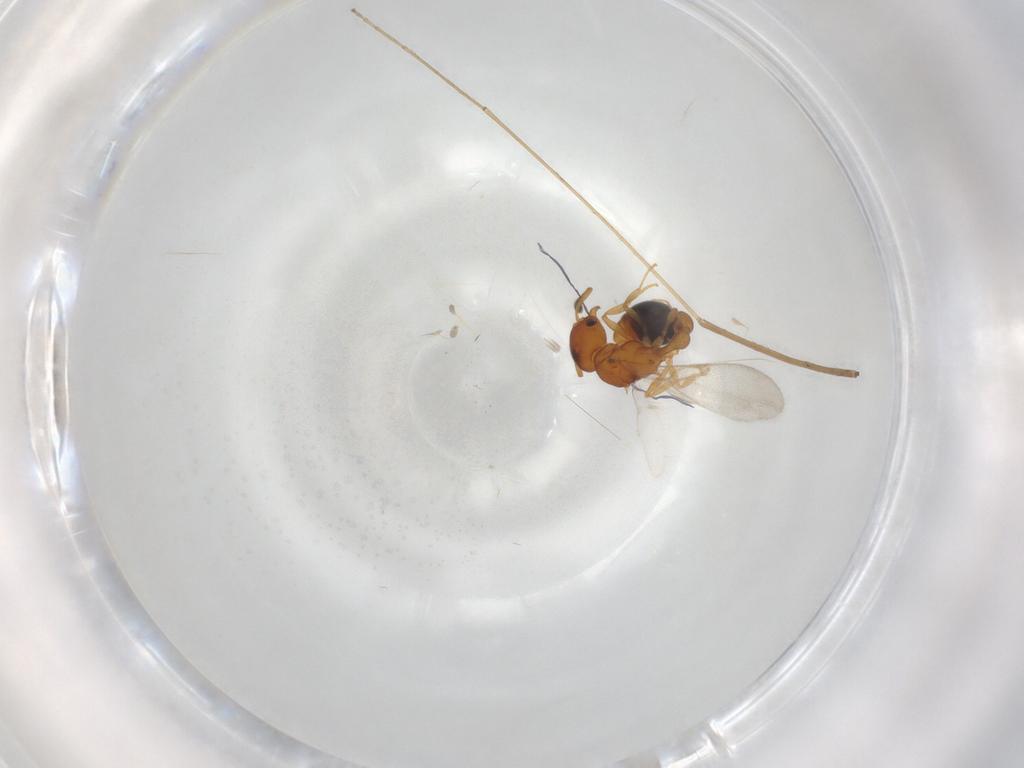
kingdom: Animalia
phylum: Arthropoda
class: Insecta
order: Hymenoptera
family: Formicidae
